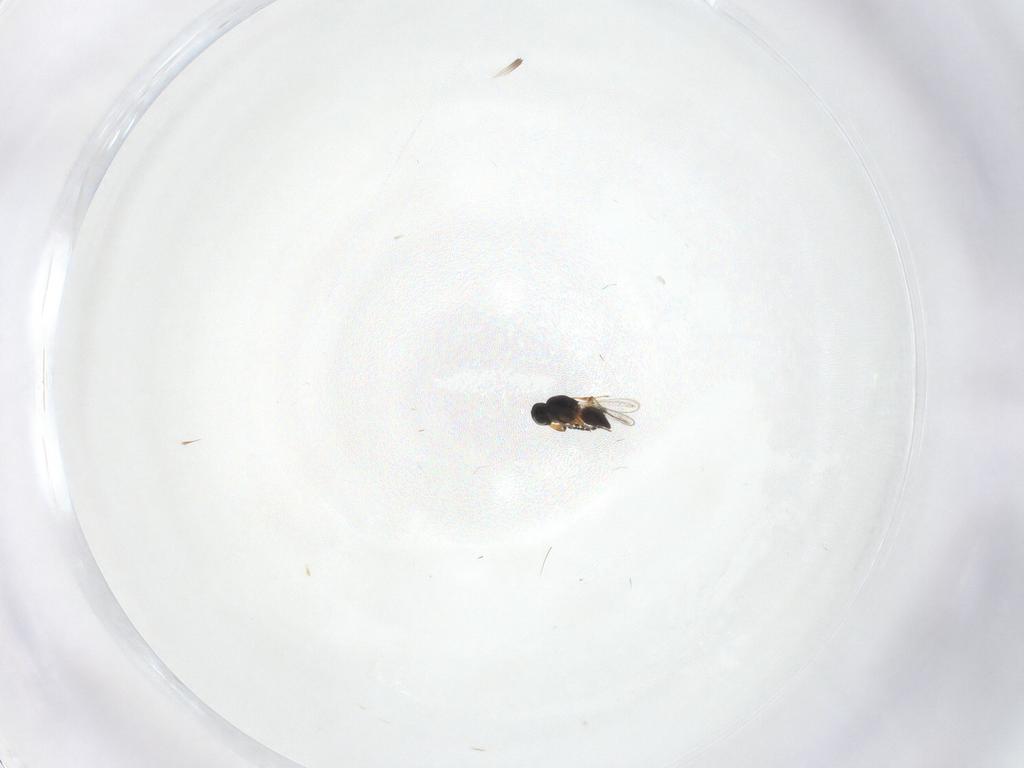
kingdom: Animalia
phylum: Arthropoda
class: Insecta
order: Hymenoptera
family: Platygastridae
